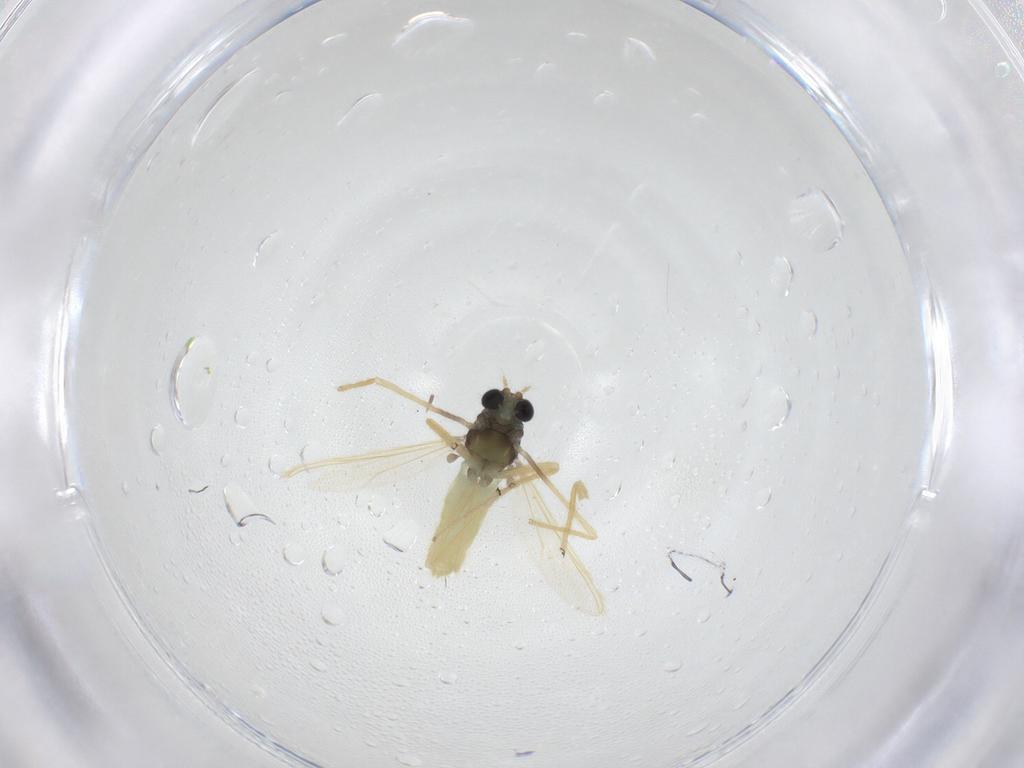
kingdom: Animalia
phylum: Arthropoda
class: Insecta
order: Diptera
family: Chironomidae
